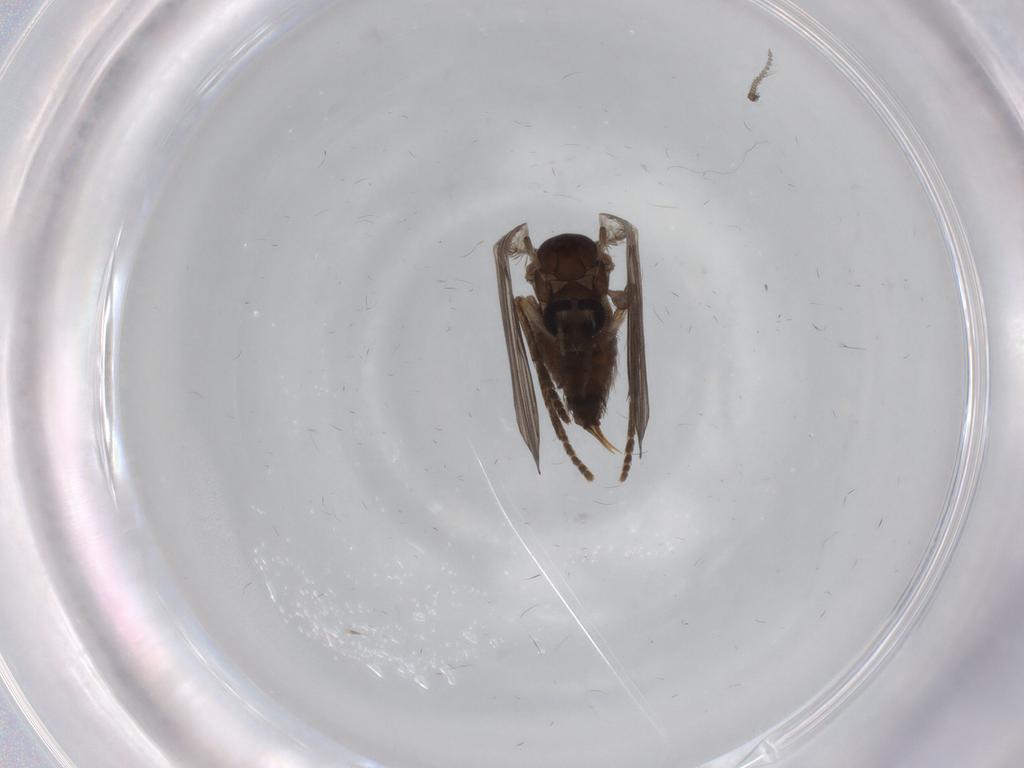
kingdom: Animalia
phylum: Arthropoda
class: Insecta
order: Diptera
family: Psychodidae
